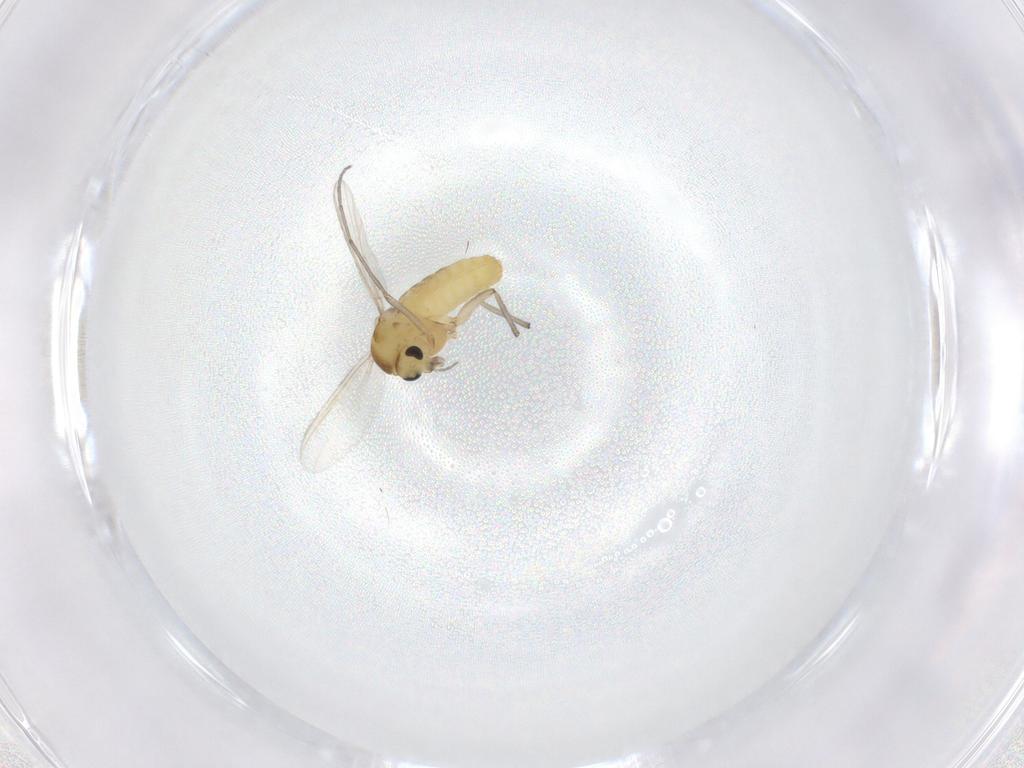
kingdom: Animalia
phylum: Arthropoda
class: Insecta
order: Diptera
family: Chironomidae
